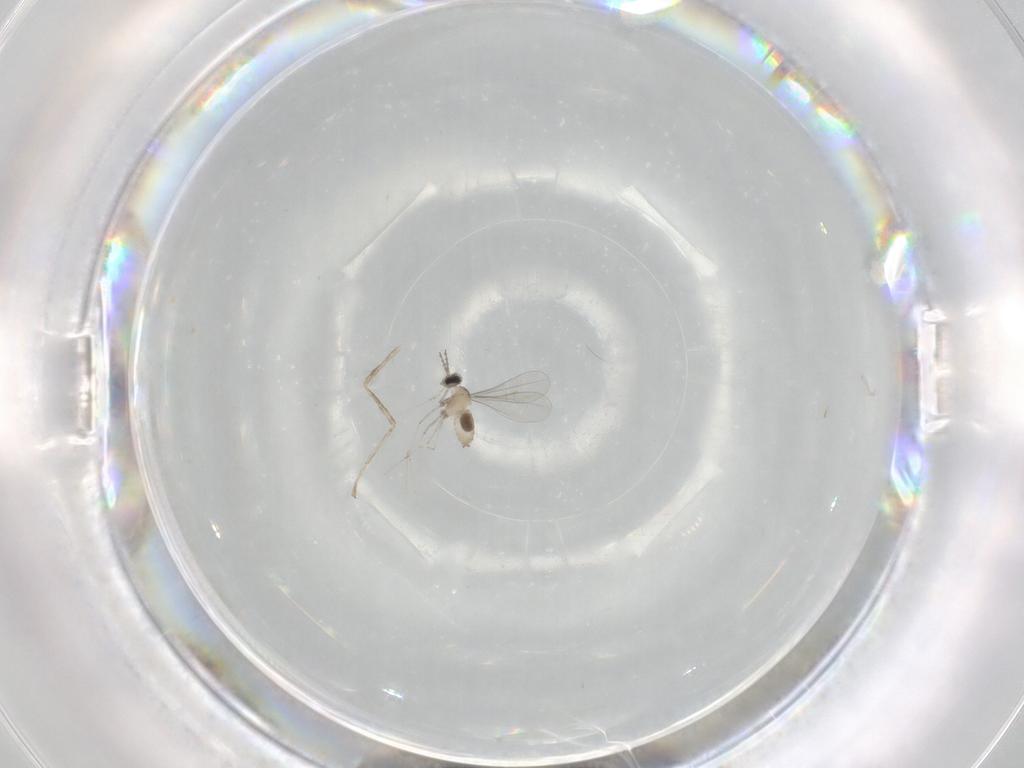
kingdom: Animalia
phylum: Arthropoda
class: Insecta
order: Diptera
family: Cecidomyiidae
